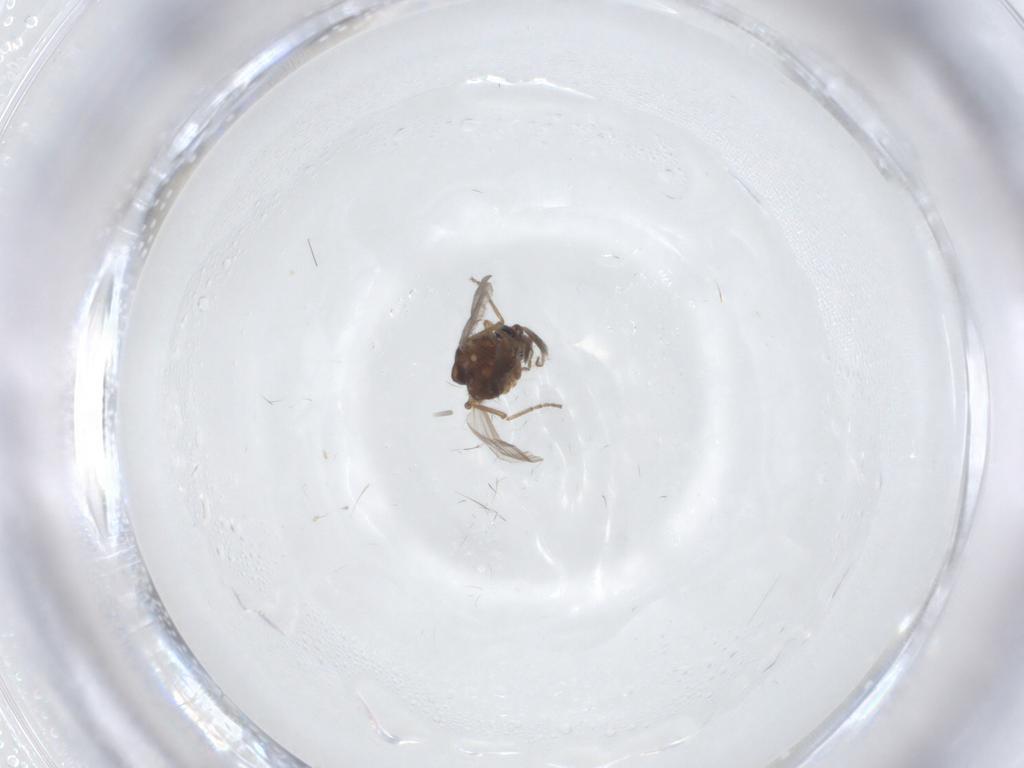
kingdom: Animalia
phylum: Arthropoda
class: Insecta
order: Diptera
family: Ceratopogonidae
